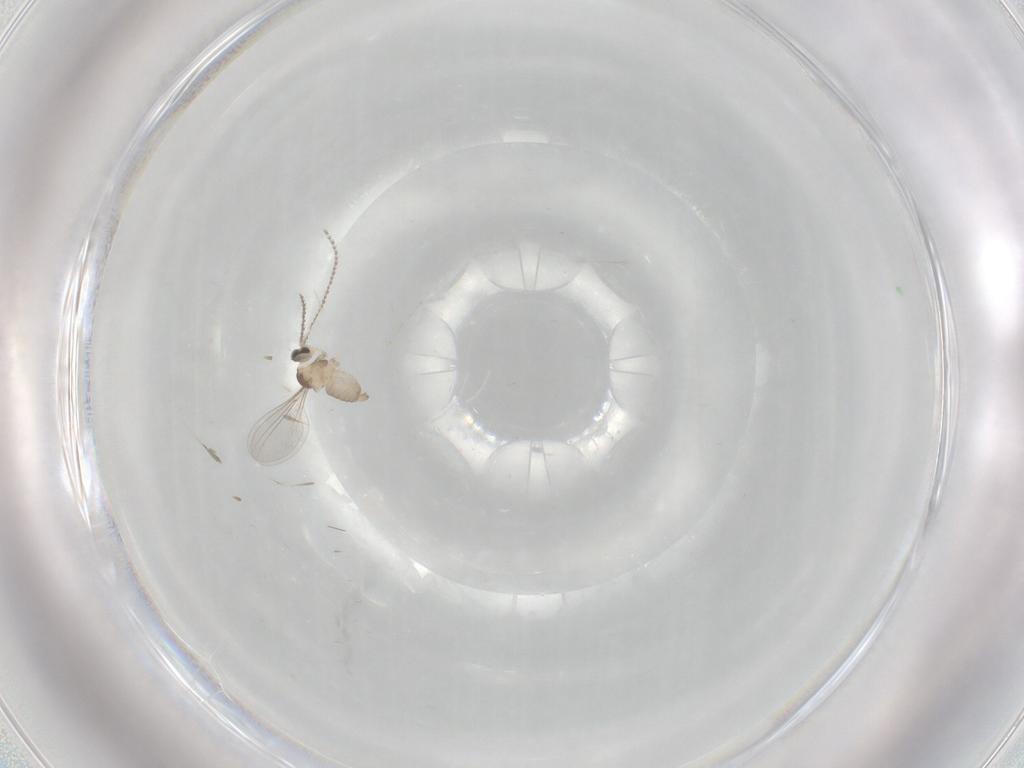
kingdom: Animalia
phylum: Arthropoda
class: Insecta
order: Diptera
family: Cecidomyiidae
